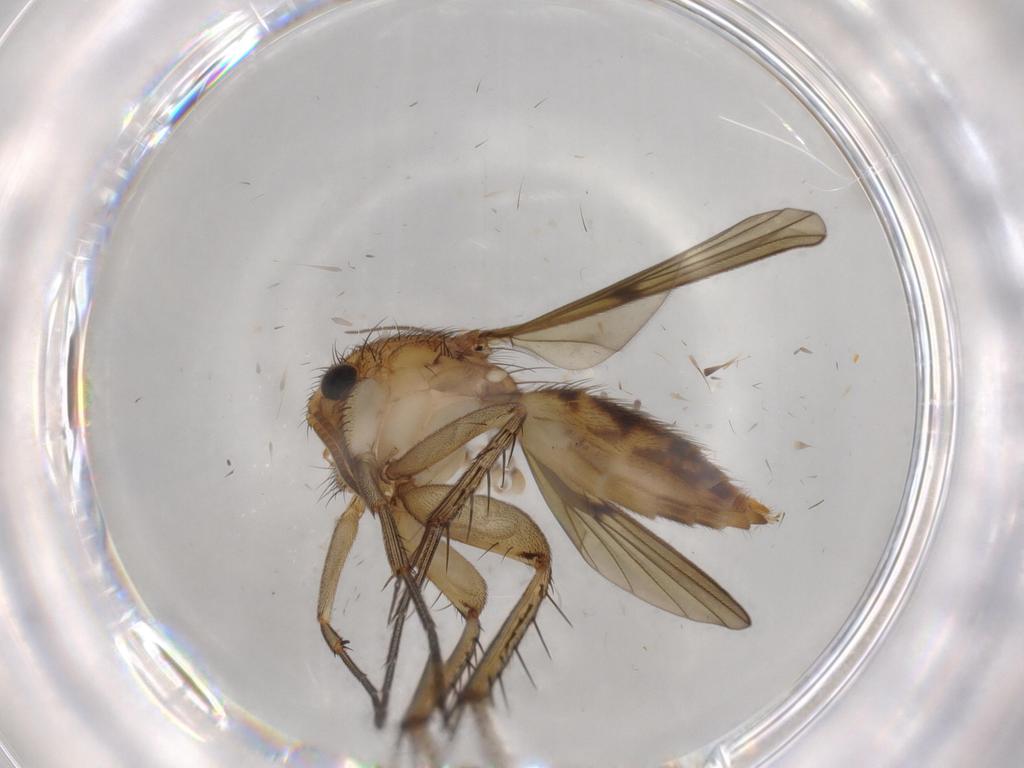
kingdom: Animalia
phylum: Arthropoda
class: Insecta
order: Diptera
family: Mycetophilidae
